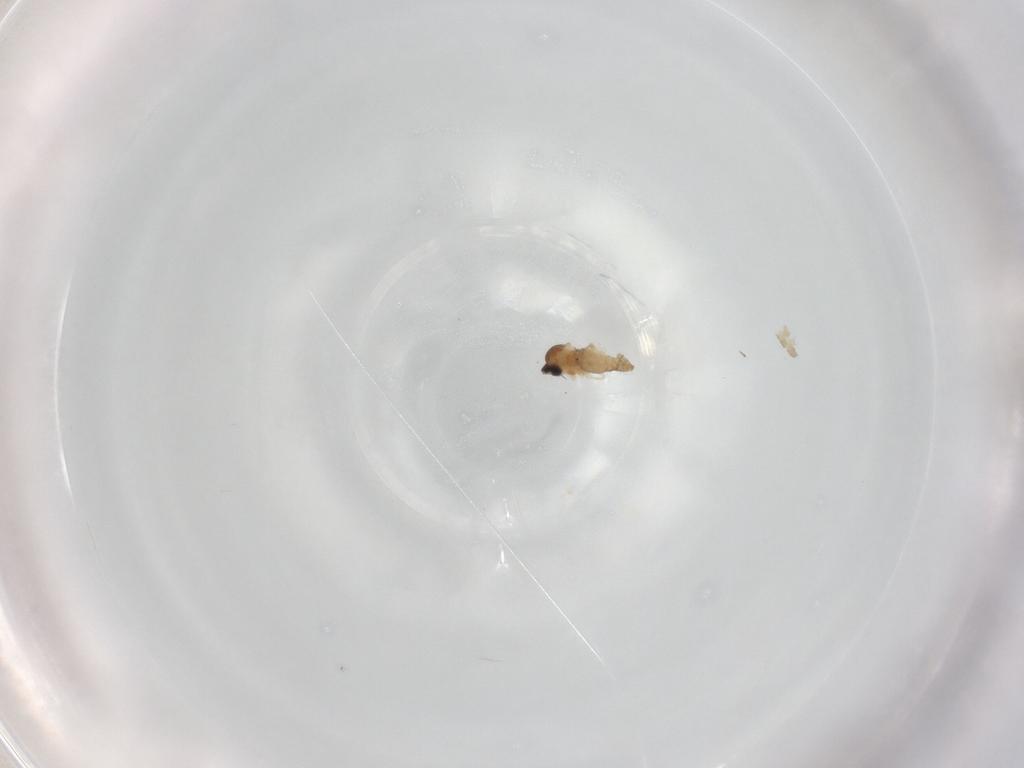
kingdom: Animalia
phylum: Arthropoda
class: Insecta
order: Diptera
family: Cecidomyiidae
